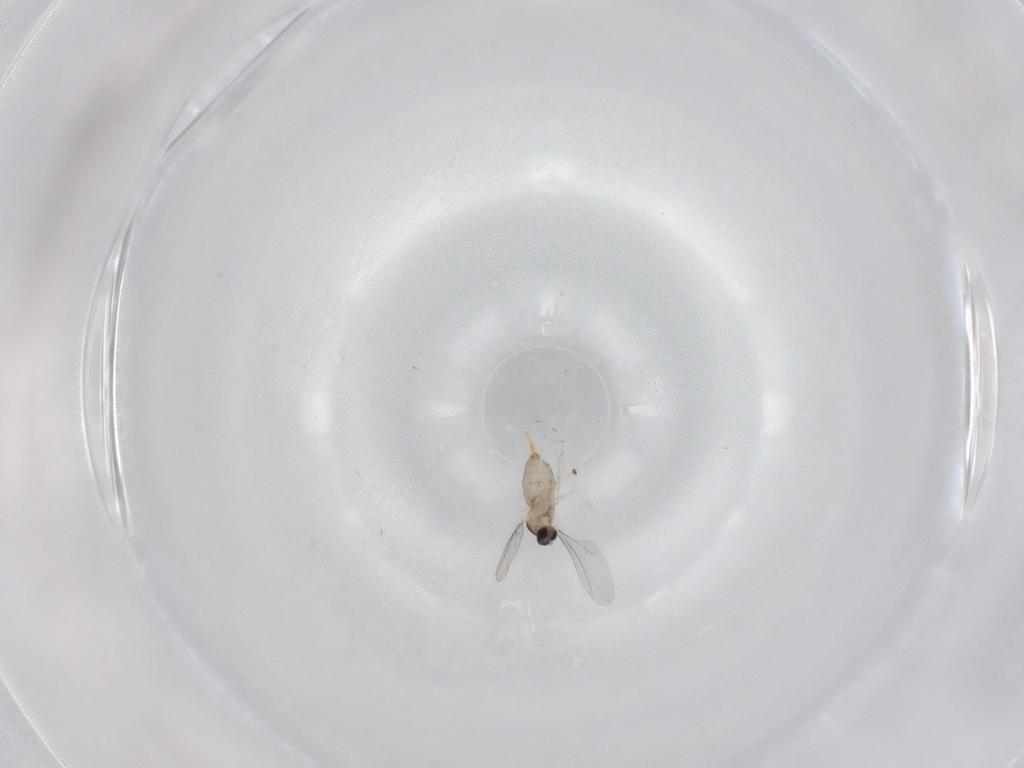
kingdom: Animalia
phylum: Arthropoda
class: Insecta
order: Diptera
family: Cecidomyiidae
